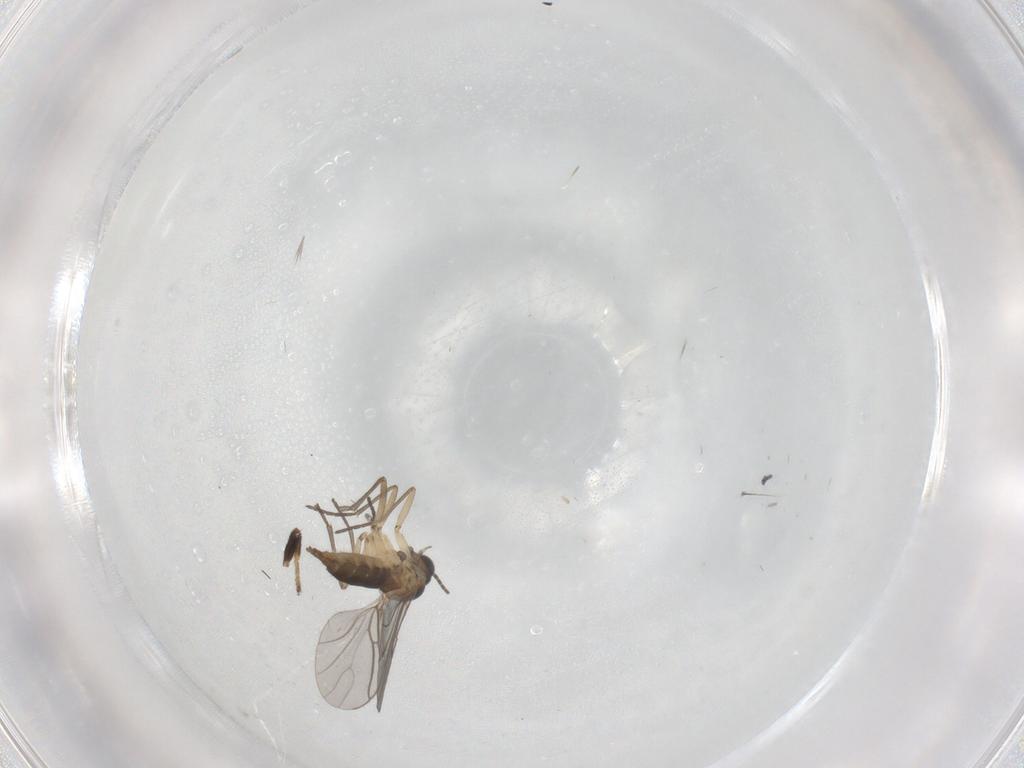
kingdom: Animalia
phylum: Arthropoda
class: Insecta
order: Diptera
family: Sciaridae
